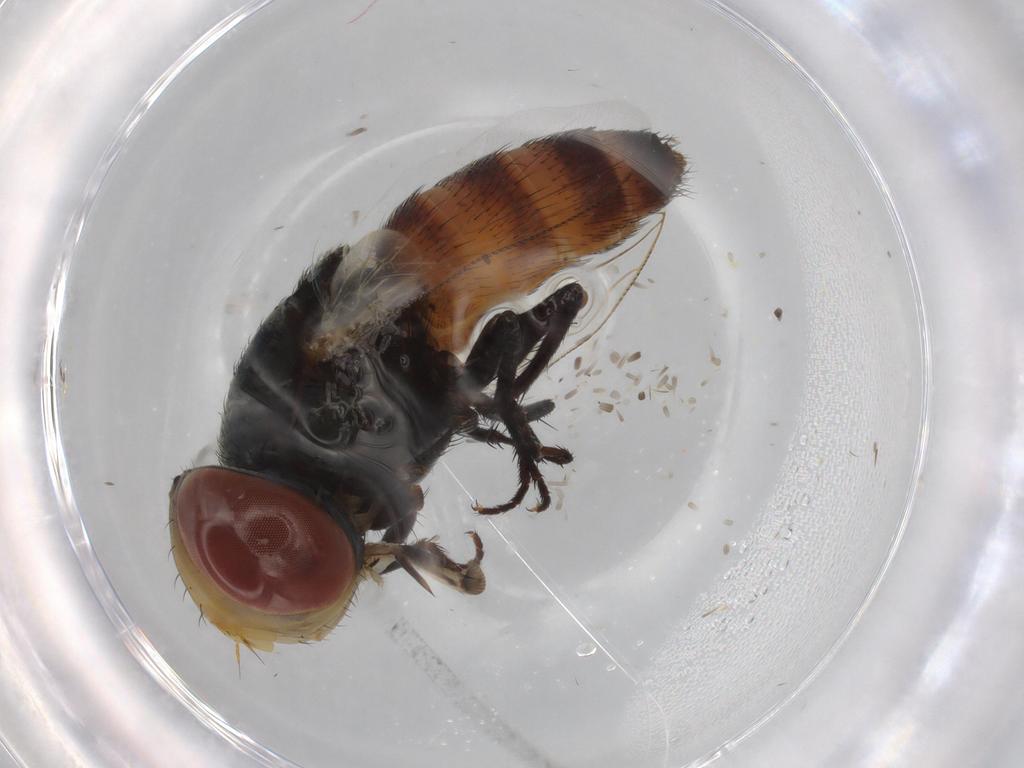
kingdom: Animalia
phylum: Arthropoda
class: Insecta
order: Diptera
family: Sarcophagidae
